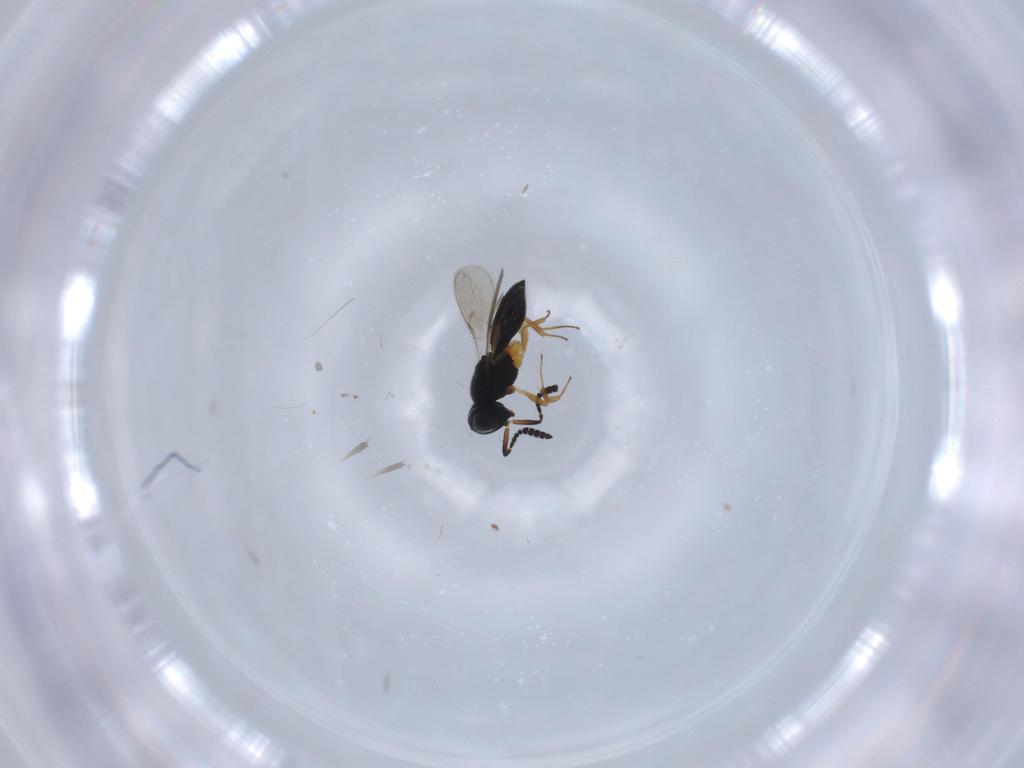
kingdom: Animalia
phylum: Arthropoda
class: Insecta
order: Hymenoptera
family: Scelionidae
